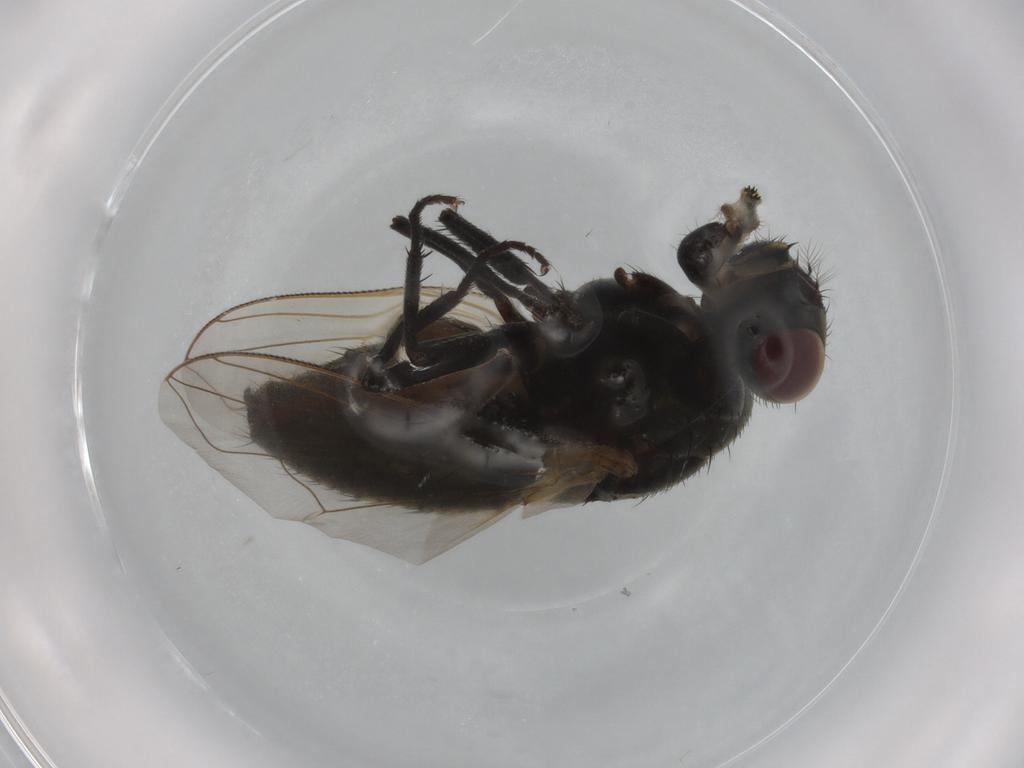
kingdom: Animalia
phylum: Arthropoda
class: Insecta
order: Diptera
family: Muscidae
